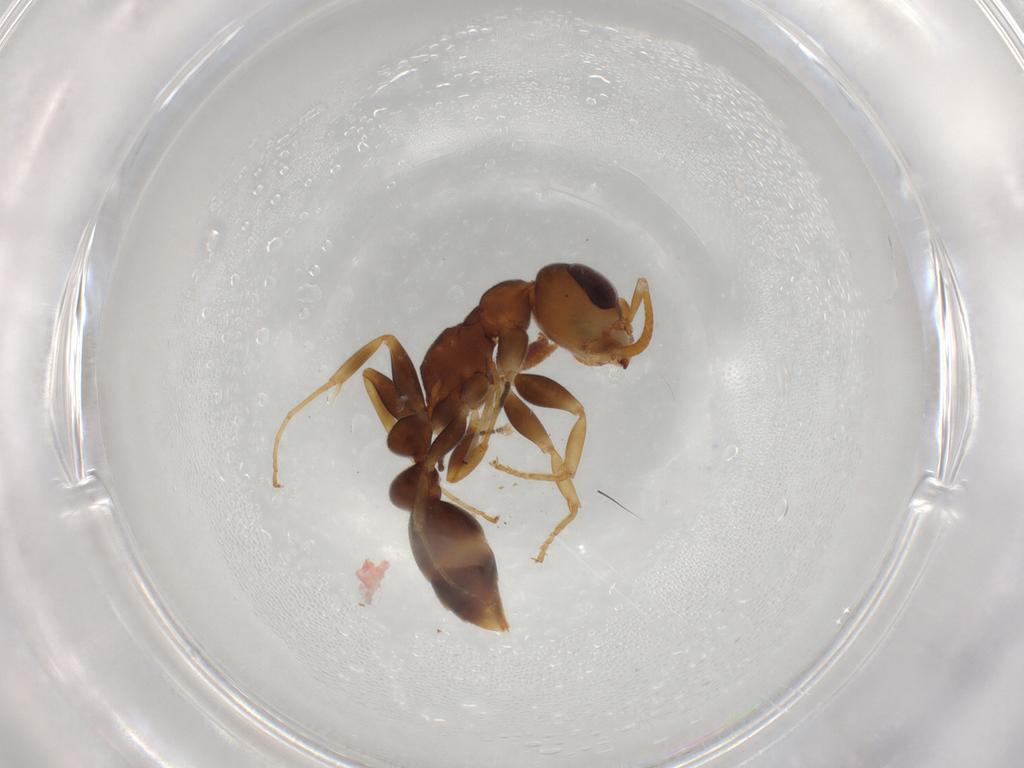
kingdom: Animalia
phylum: Arthropoda
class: Insecta
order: Hymenoptera
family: Formicidae
